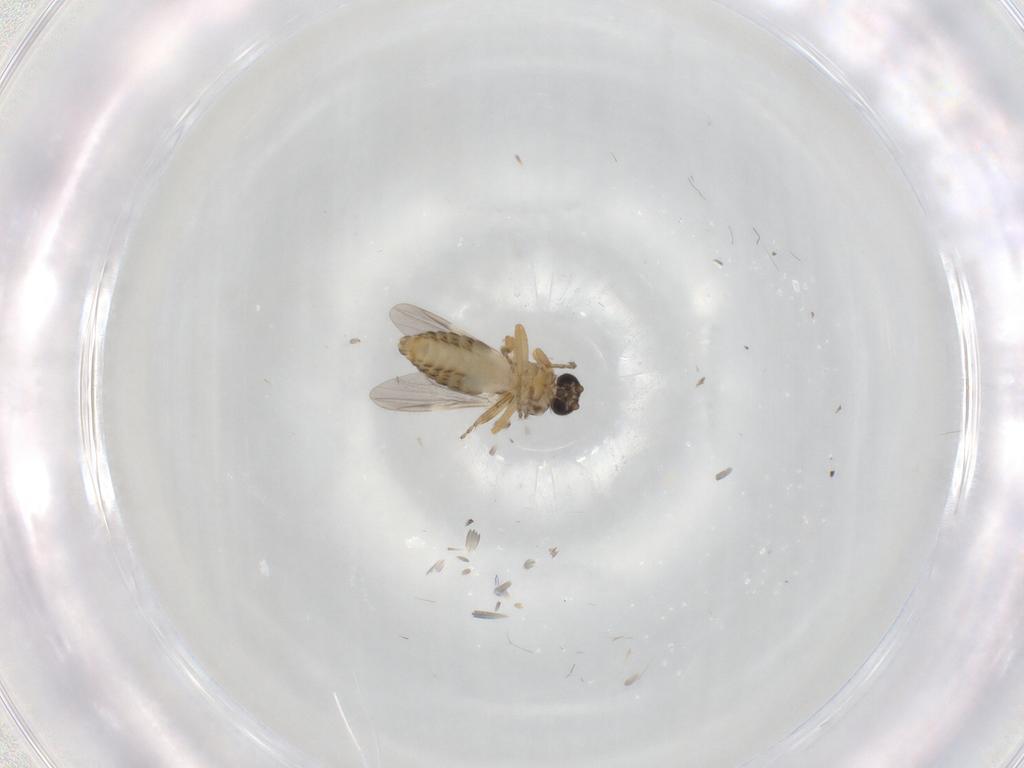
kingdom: Animalia
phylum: Arthropoda
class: Insecta
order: Diptera
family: Ceratopogonidae
